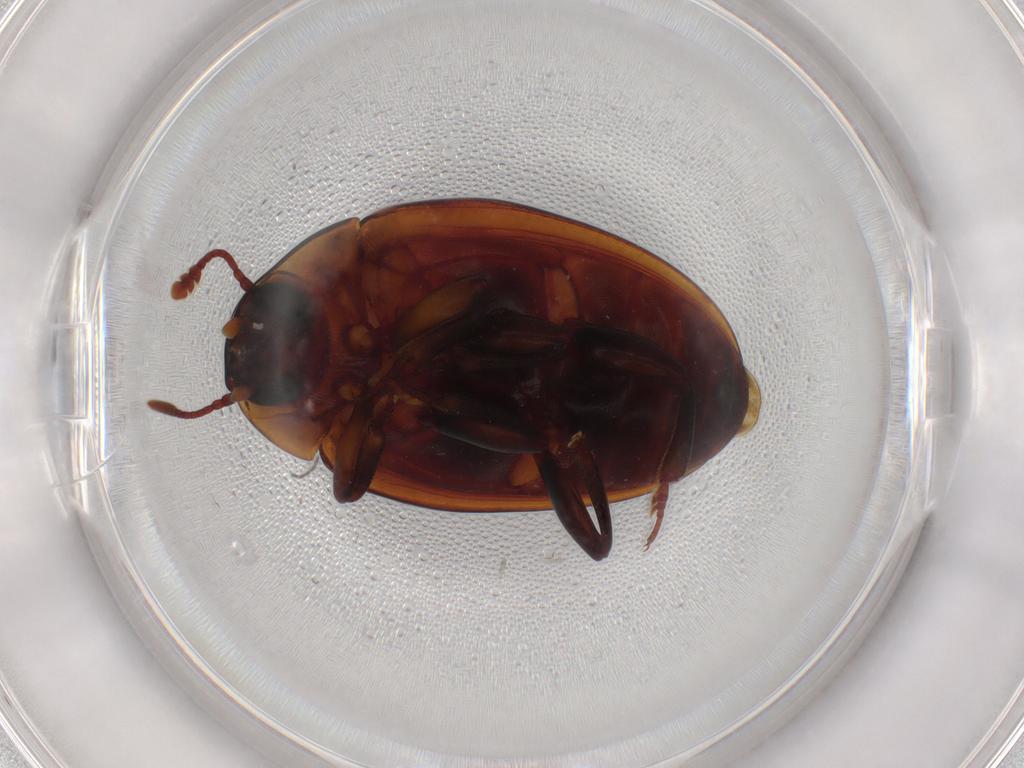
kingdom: Animalia
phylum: Arthropoda
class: Insecta
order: Coleoptera
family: Zopheridae
